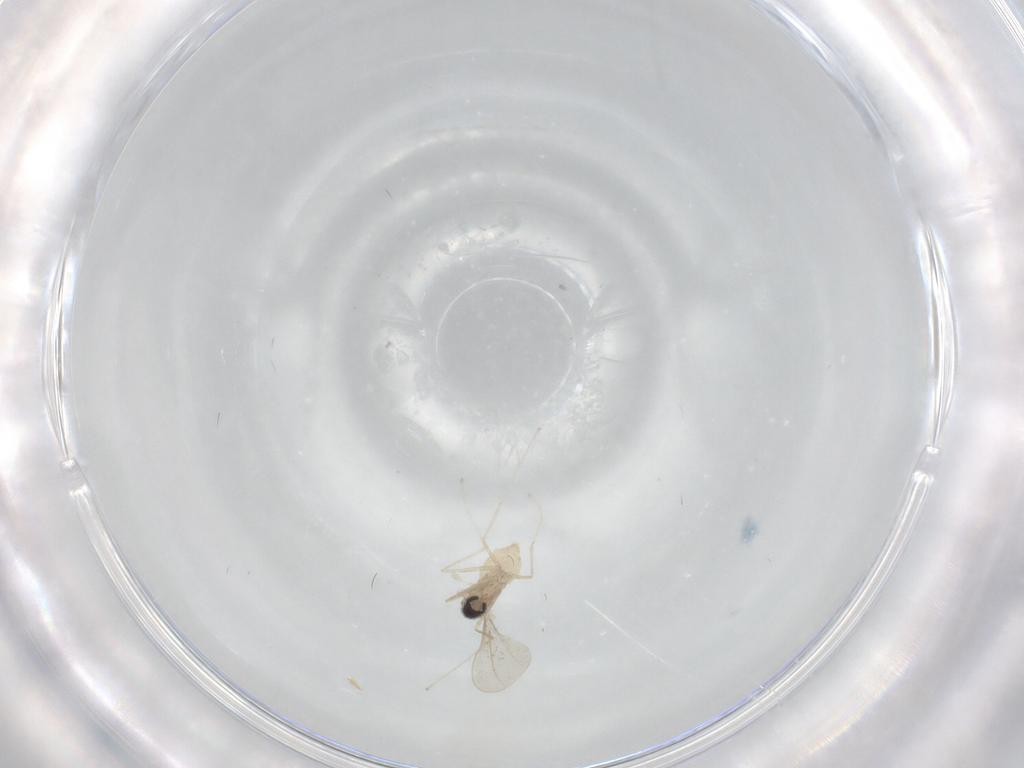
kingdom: Animalia
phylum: Arthropoda
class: Insecta
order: Diptera
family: Cecidomyiidae
